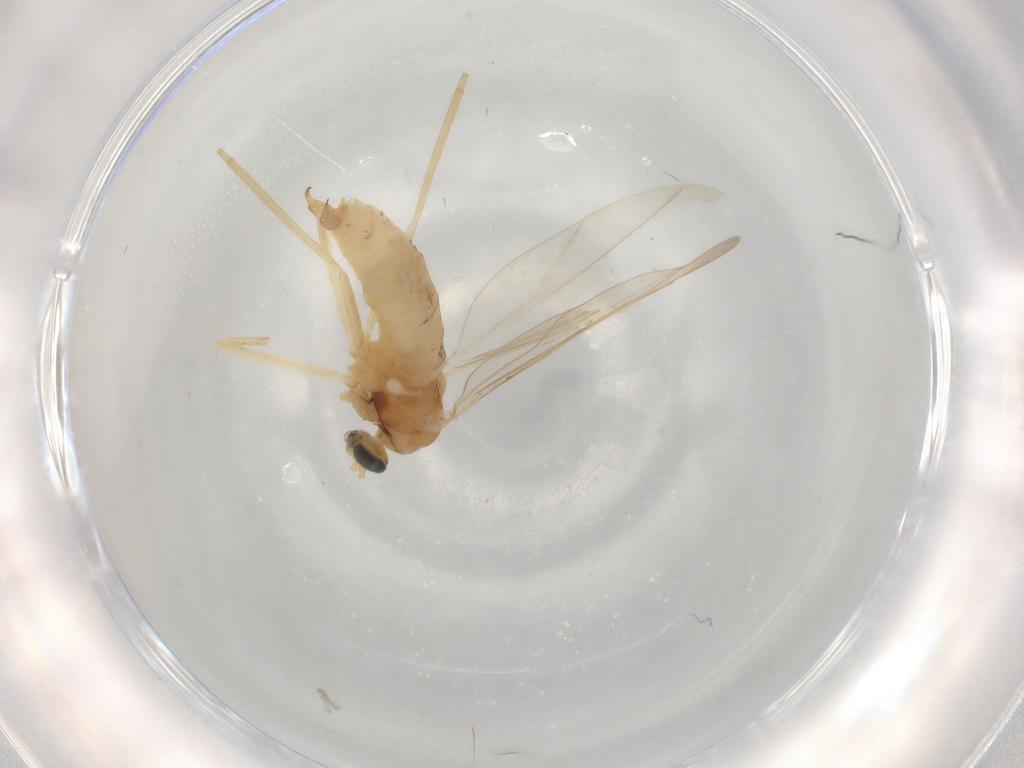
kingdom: Animalia
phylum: Arthropoda
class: Insecta
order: Diptera
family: Cecidomyiidae
